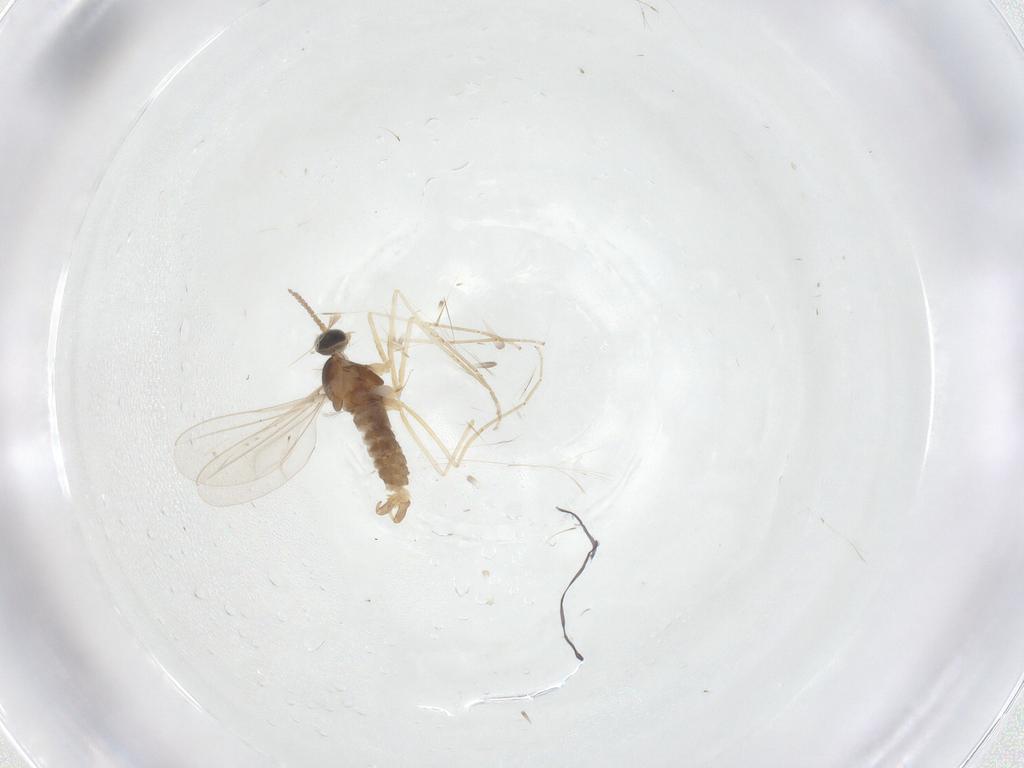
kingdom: Animalia
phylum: Arthropoda
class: Insecta
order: Diptera
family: Cecidomyiidae
